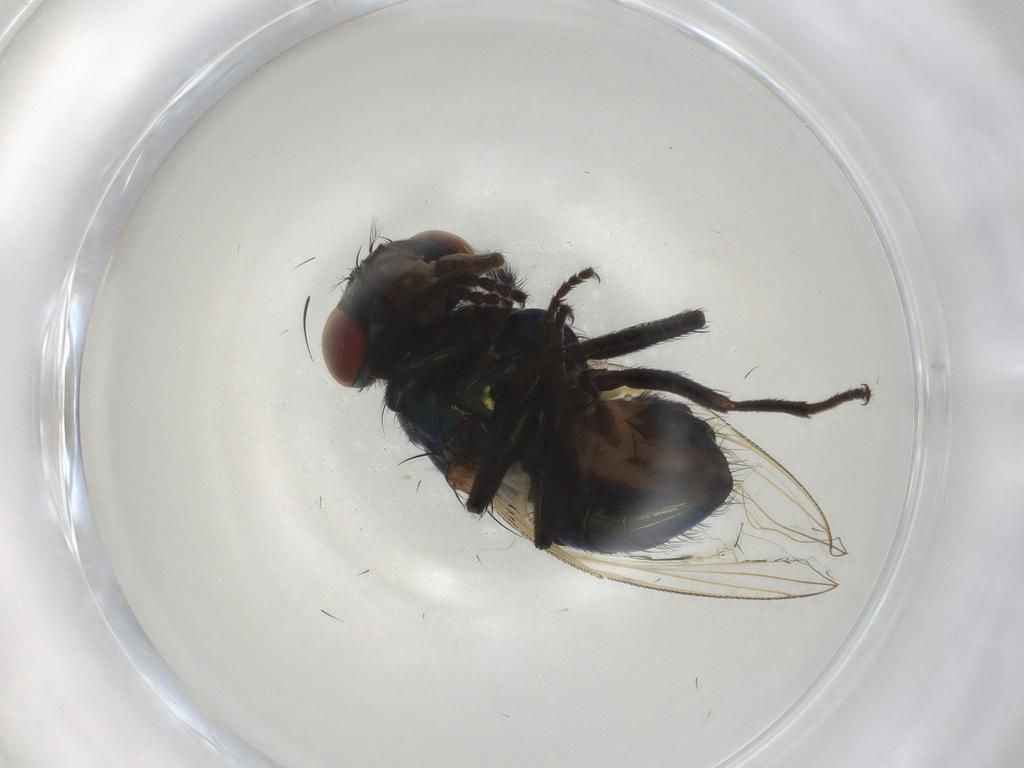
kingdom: Animalia
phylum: Arthropoda
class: Insecta
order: Diptera
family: Muscidae
